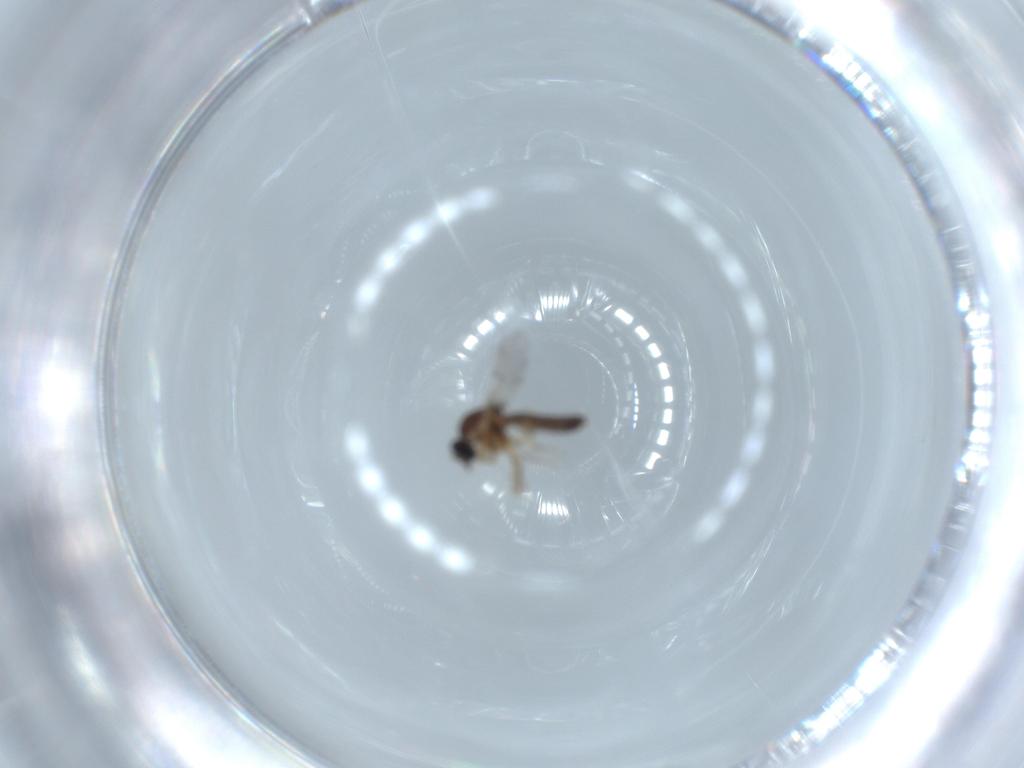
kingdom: Animalia
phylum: Arthropoda
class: Insecta
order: Diptera
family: Ceratopogonidae
